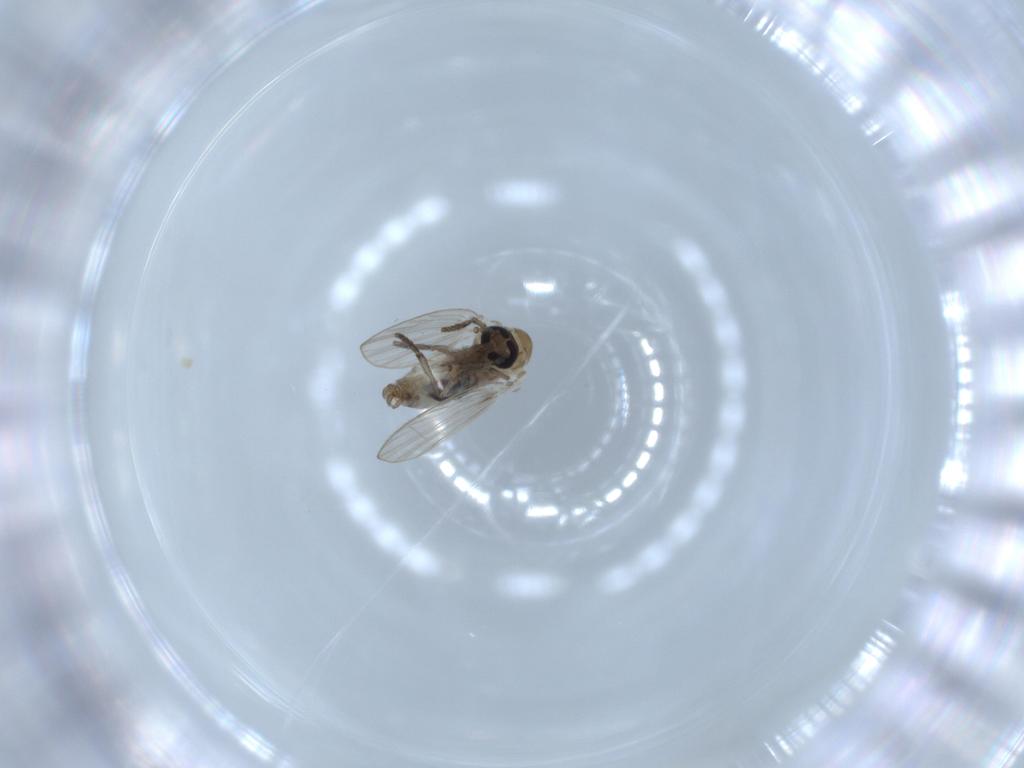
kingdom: Animalia
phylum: Arthropoda
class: Insecta
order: Diptera
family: Psychodidae
